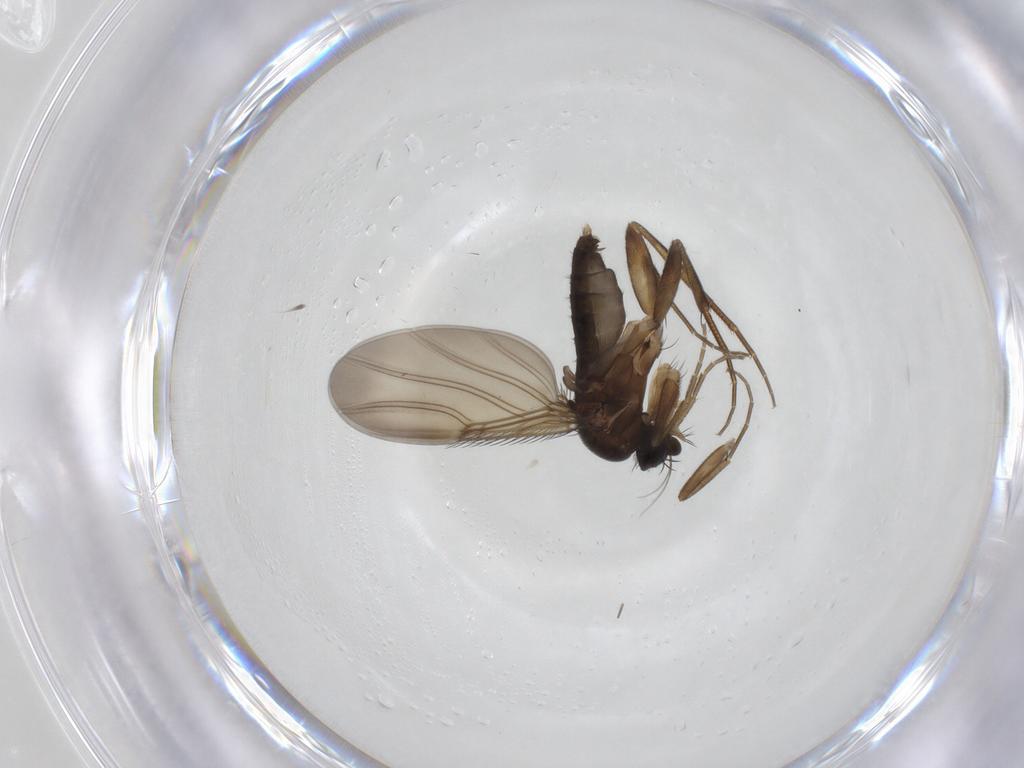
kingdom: Animalia
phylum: Arthropoda
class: Insecta
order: Diptera
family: Phoridae
